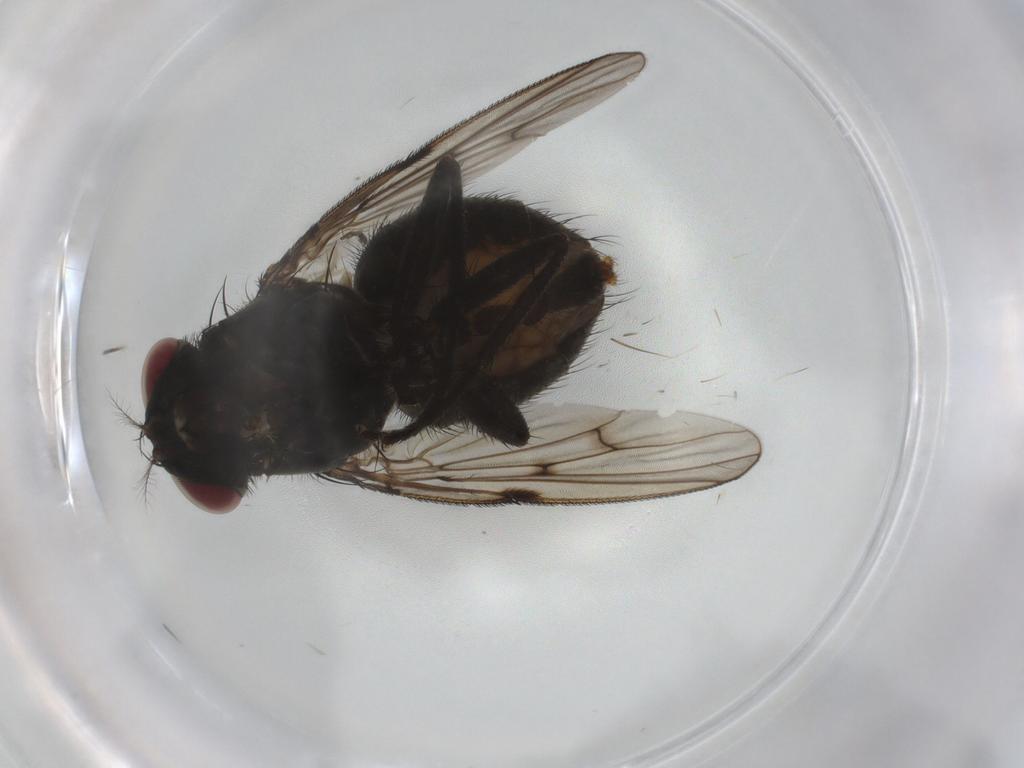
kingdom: Animalia
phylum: Arthropoda
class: Insecta
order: Diptera
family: Muscidae
